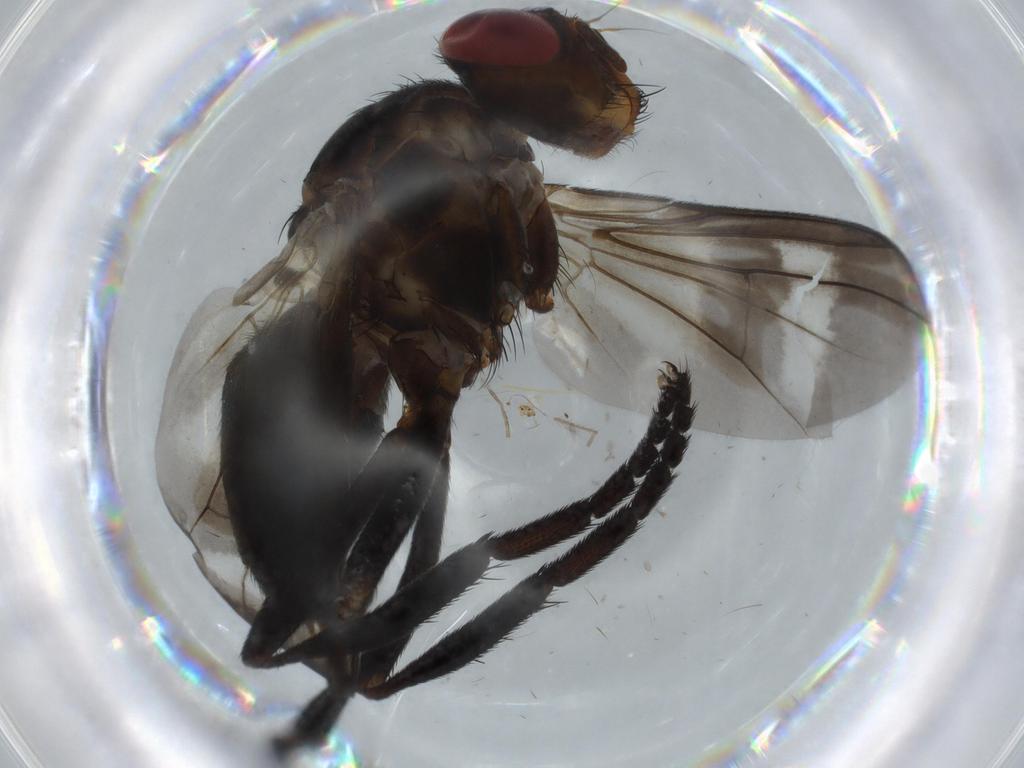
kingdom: Animalia
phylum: Arthropoda
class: Insecta
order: Diptera
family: Calliphoridae
